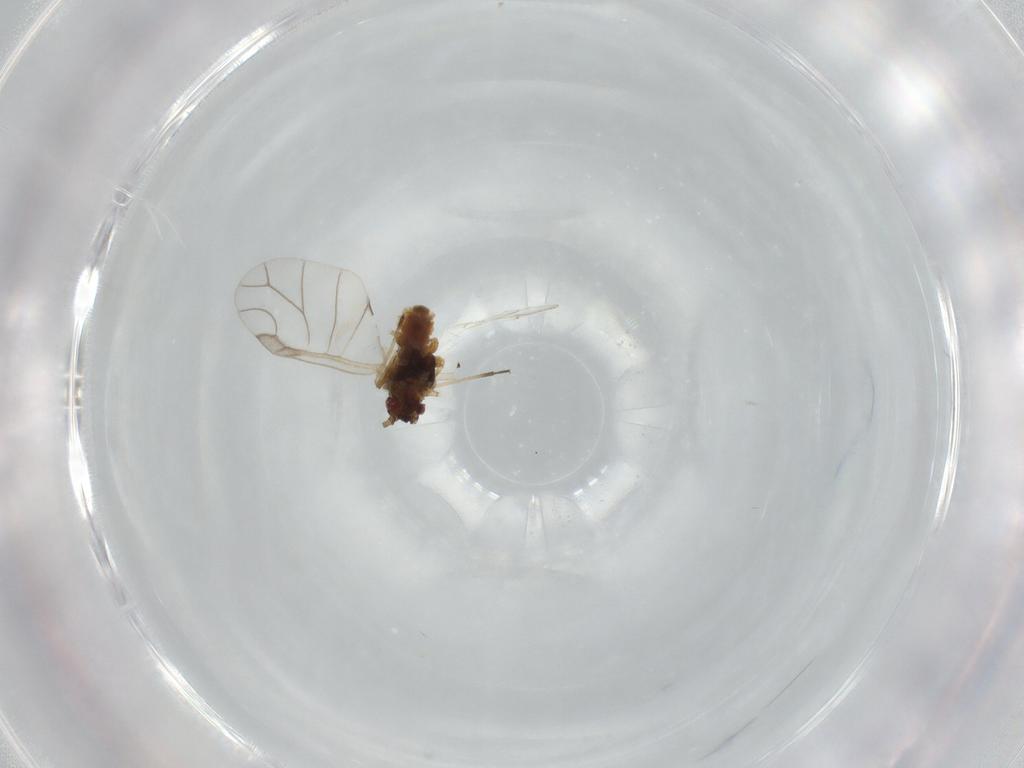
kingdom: Animalia
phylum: Arthropoda
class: Insecta
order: Hemiptera
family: Aphididae
